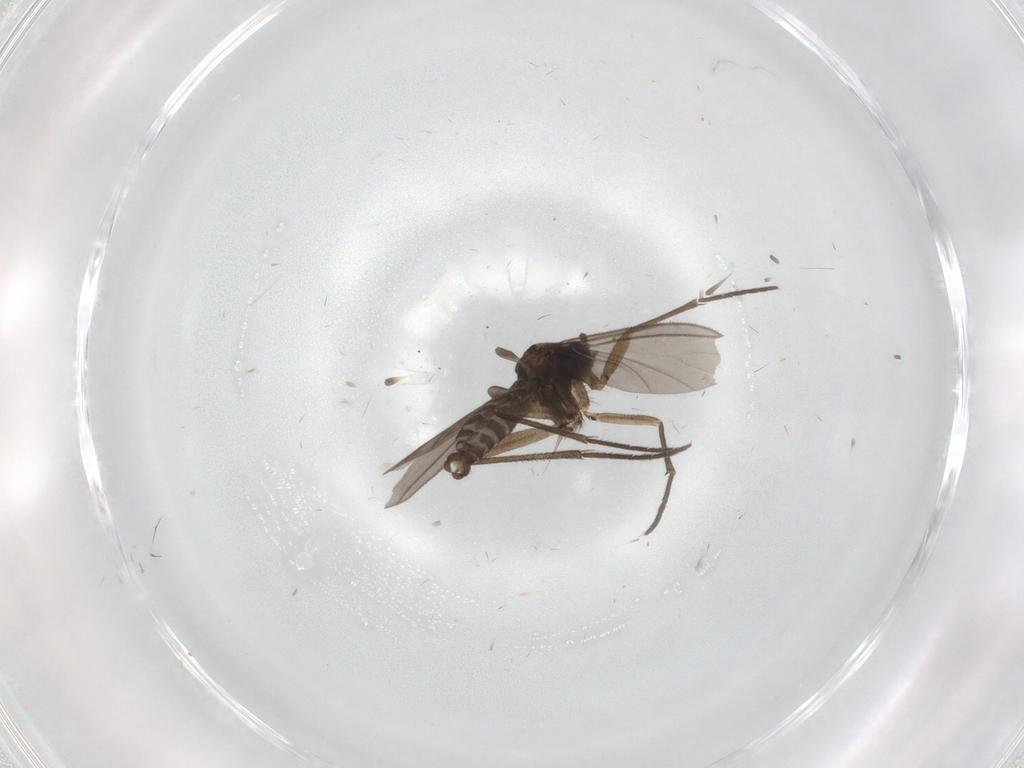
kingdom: Animalia
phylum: Arthropoda
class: Insecta
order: Diptera
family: Sciaridae
